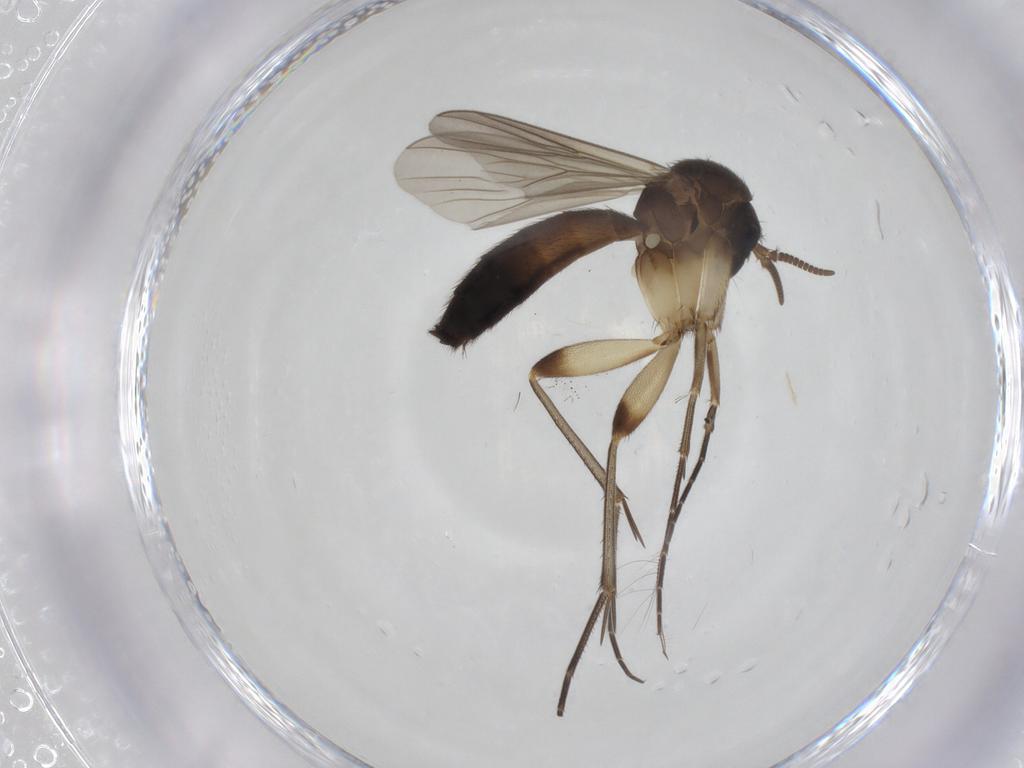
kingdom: Animalia
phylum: Arthropoda
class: Insecta
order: Diptera
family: Mycetophilidae
